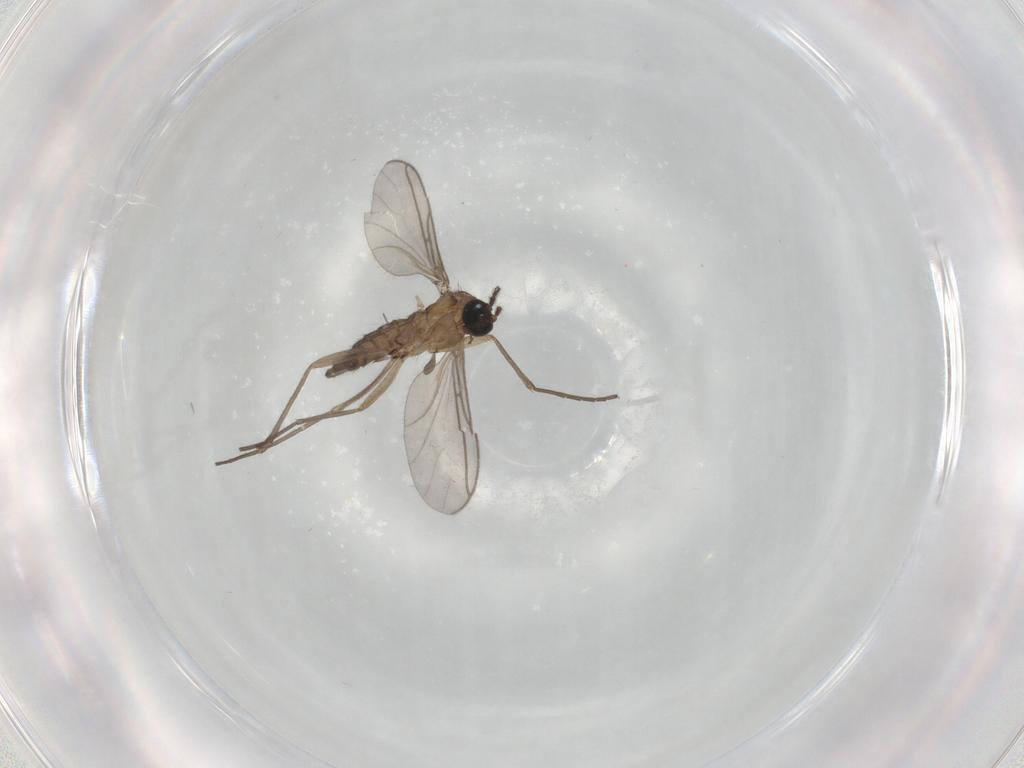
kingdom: Animalia
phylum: Arthropoda
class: Insecta
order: Diptera
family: Sciaridae
